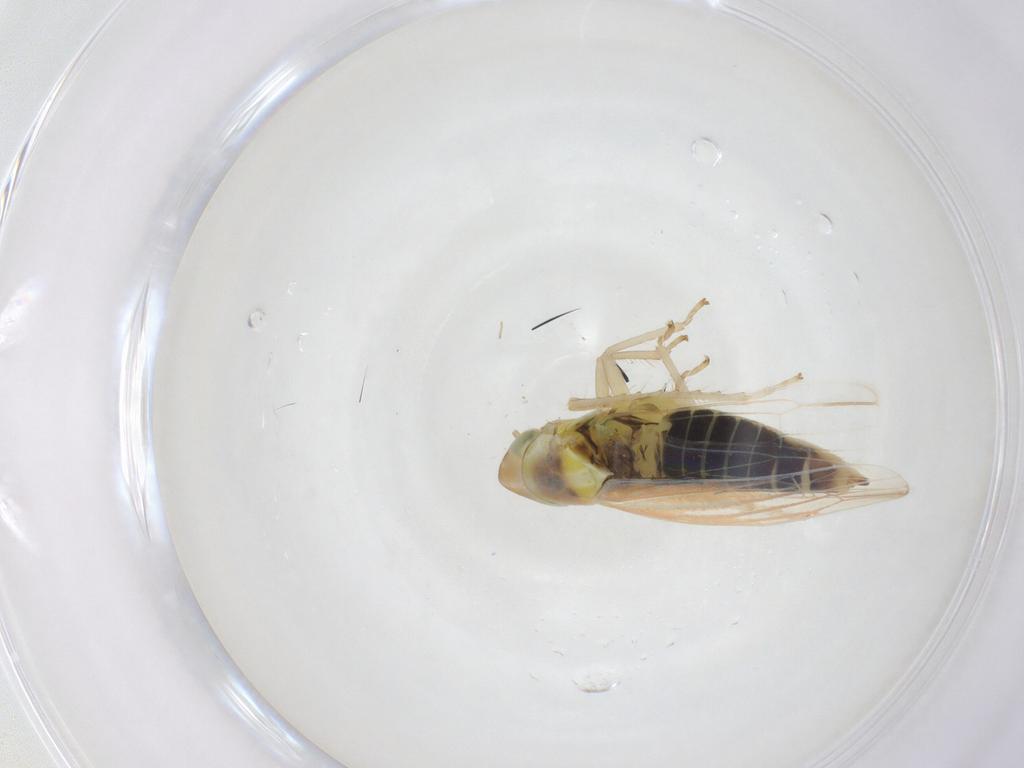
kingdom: Animalia
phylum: Arthropoda
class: Insecta
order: Hemiptera
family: Cicadellidae
